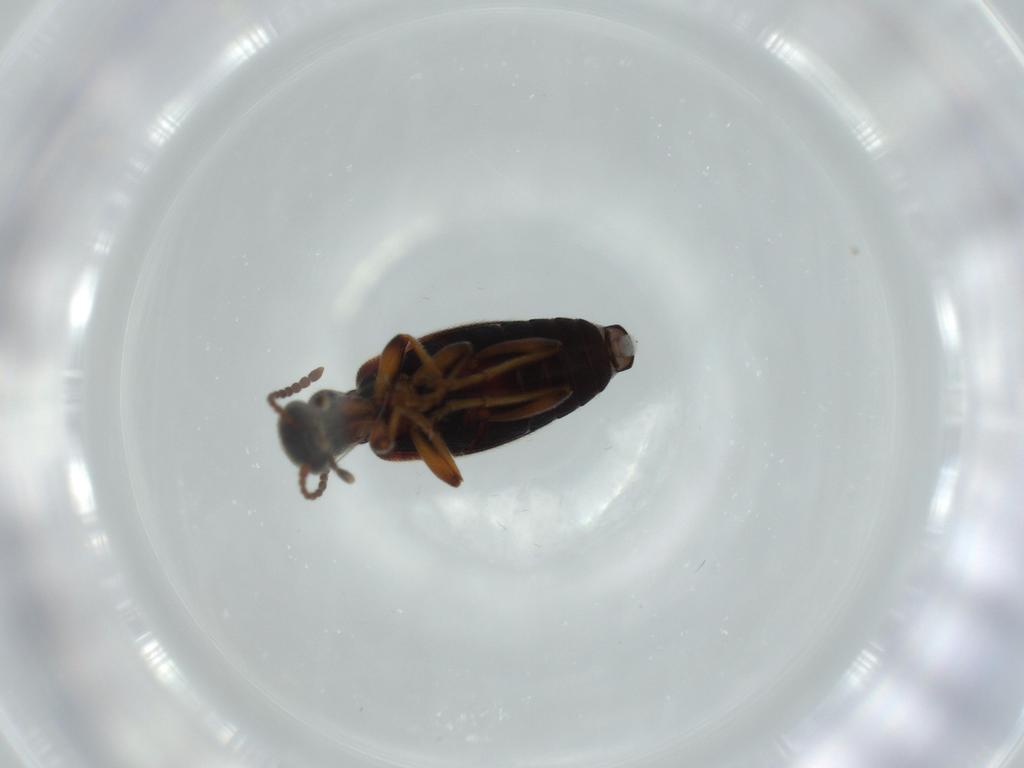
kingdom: Animalia
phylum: Arthropoda
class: Insecta
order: Coleoptera
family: Anthicidae
